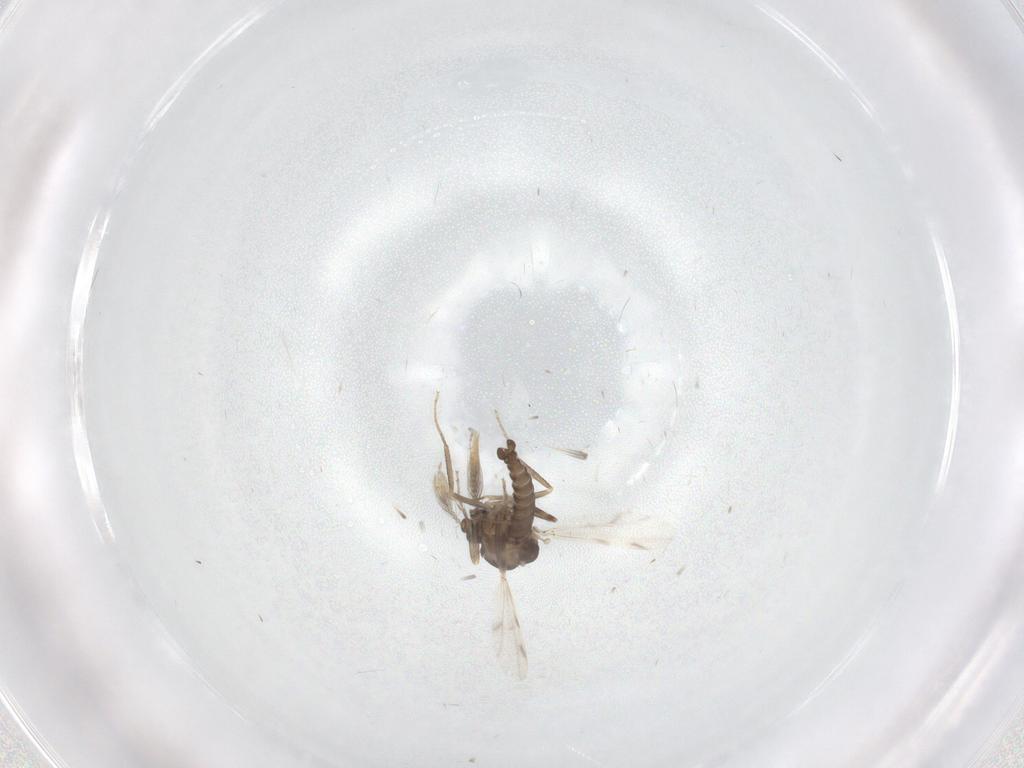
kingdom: Animalia
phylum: Arthropoda
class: Insecta
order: Diptera
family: Ceratopogonidae
